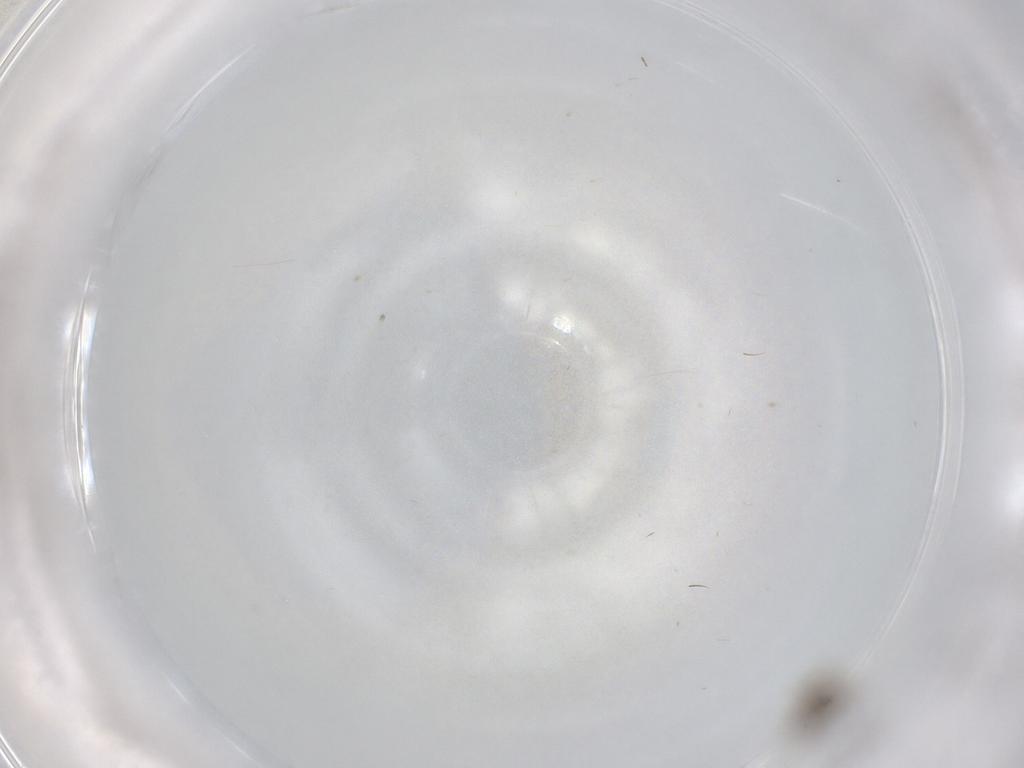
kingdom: Animalia
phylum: Arthropoda
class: Insecta
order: Diptera
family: Ceratopogonidae
